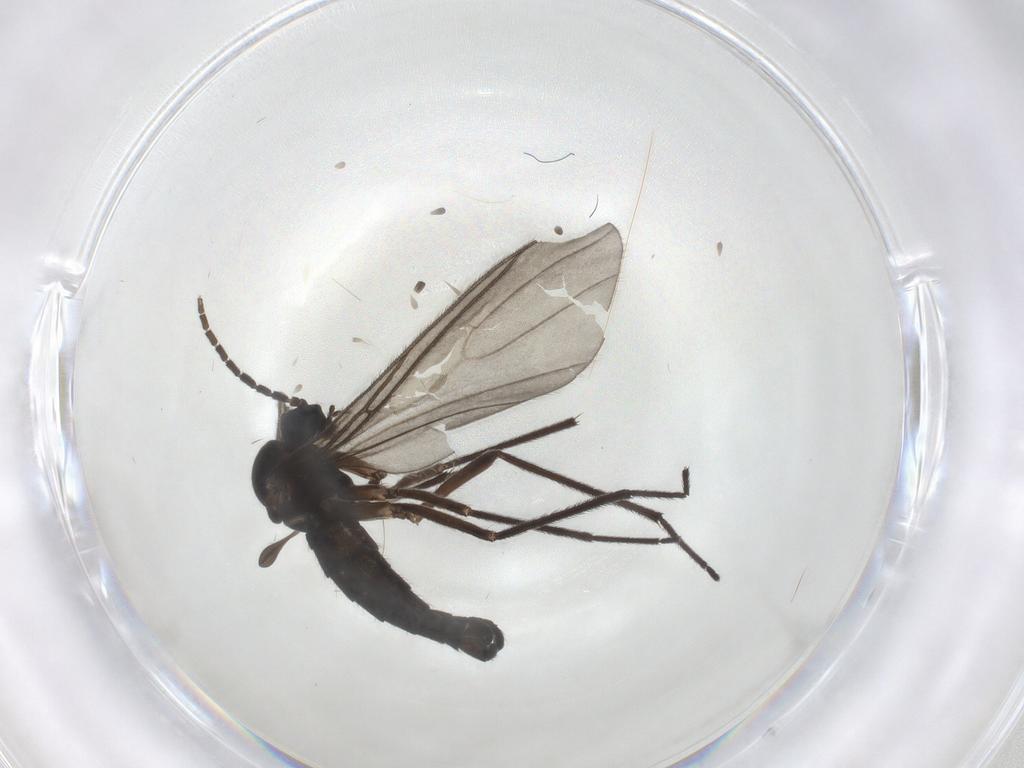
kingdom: Animalia
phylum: Arthropoda
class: Insecta
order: Diptera
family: Sciaridae
